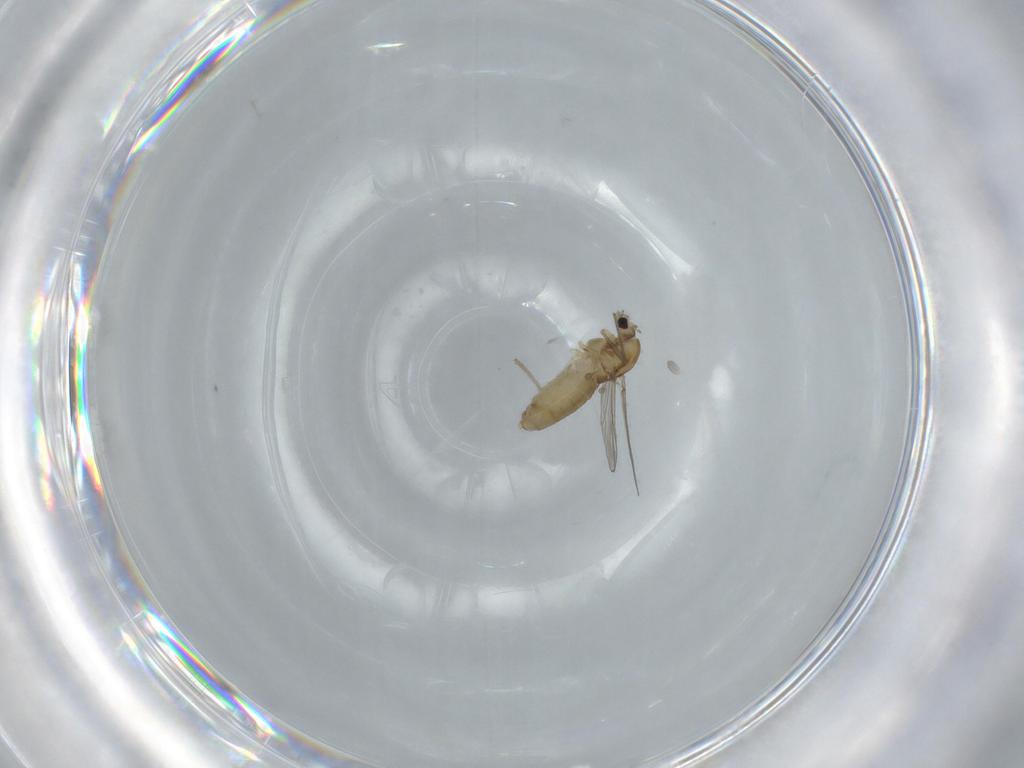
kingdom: Animalia
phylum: Arthropoda
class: Insecta
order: Diptera
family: Chironomidae
